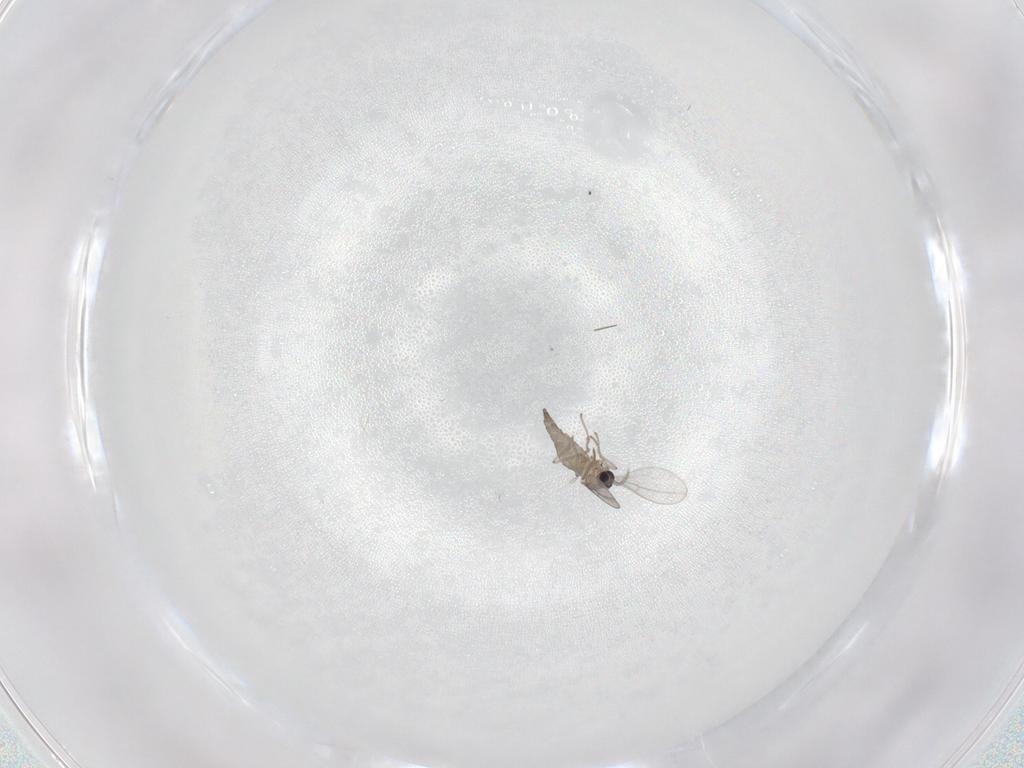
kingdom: Animalia
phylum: Arthropoda
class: Insecta
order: Diptera
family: Cecidomyiidae
